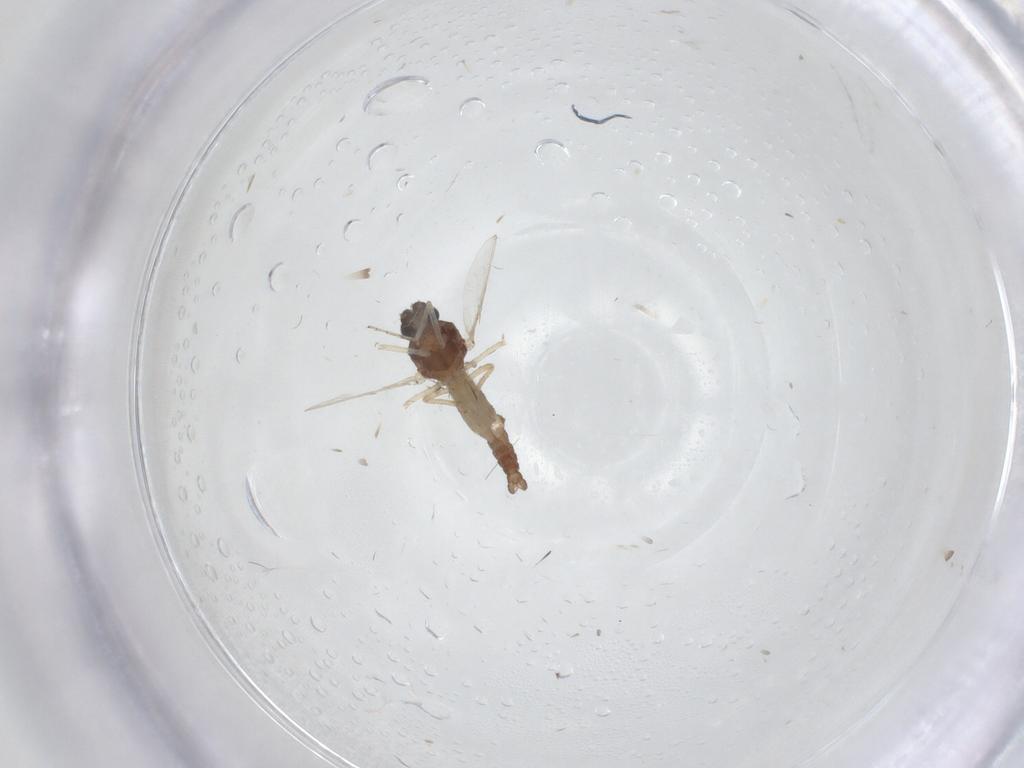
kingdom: Animalia
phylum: Arthropoda
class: Insecta
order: Diptera
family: Ceratopogonidae
